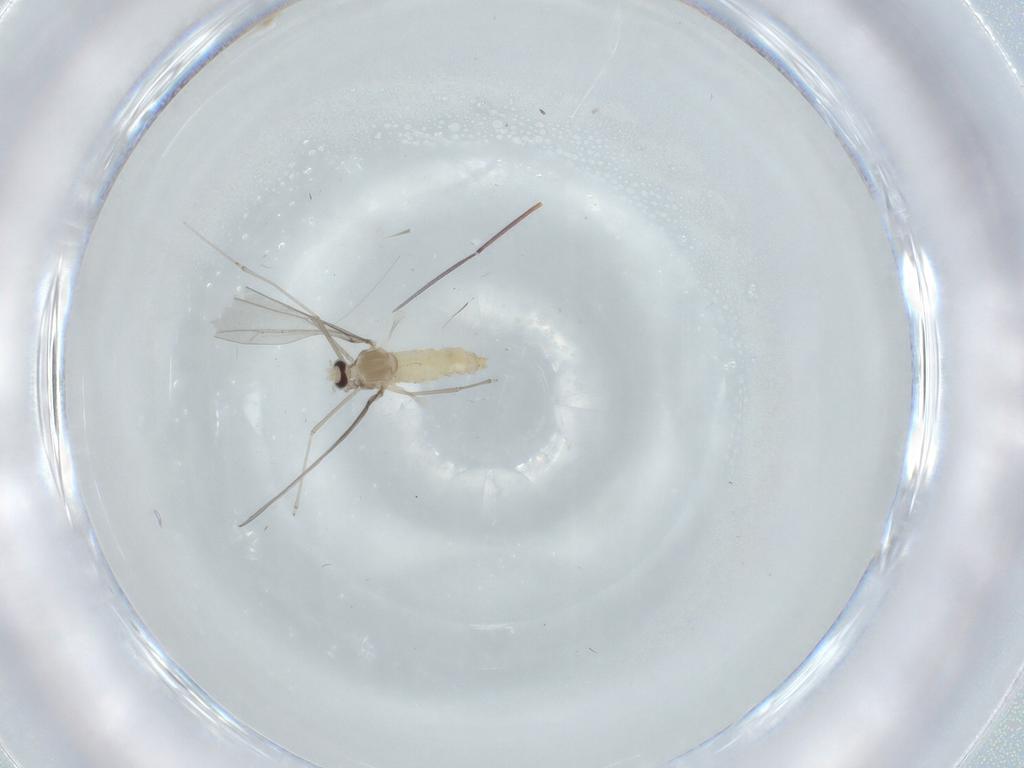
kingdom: Animalia
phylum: Arthropoda
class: Insecta
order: Diptera
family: Cecidomyiidae
